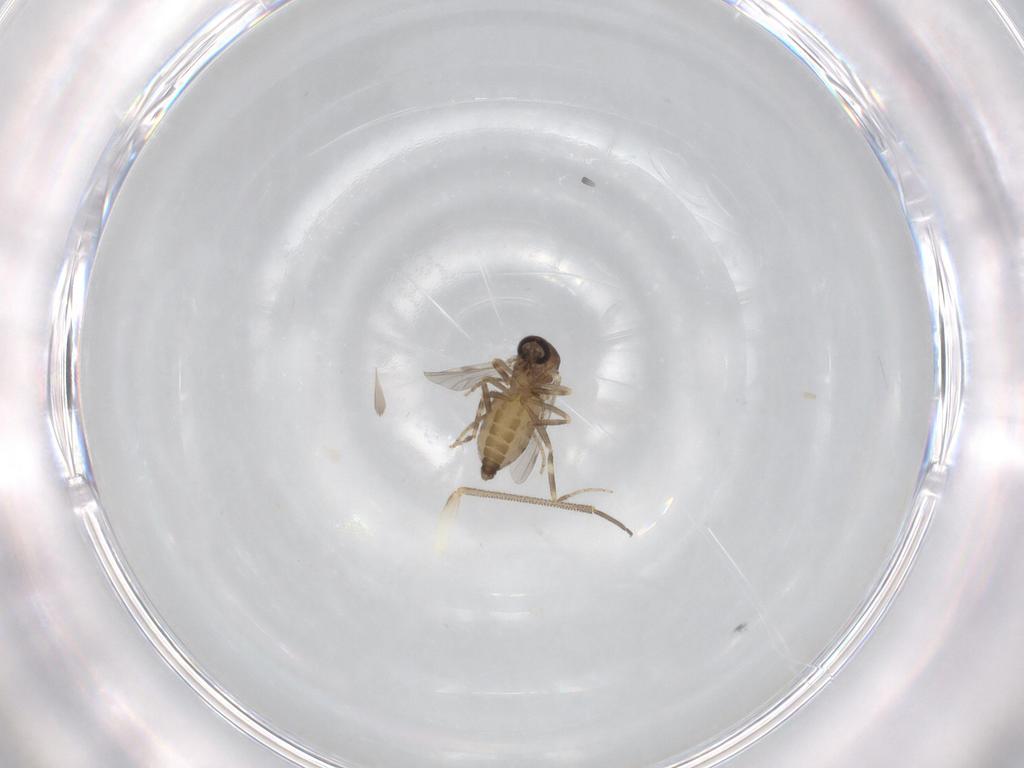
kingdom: Animalia
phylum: Arthropoda
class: Insecta
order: Diptera
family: Ceratopogonidae
